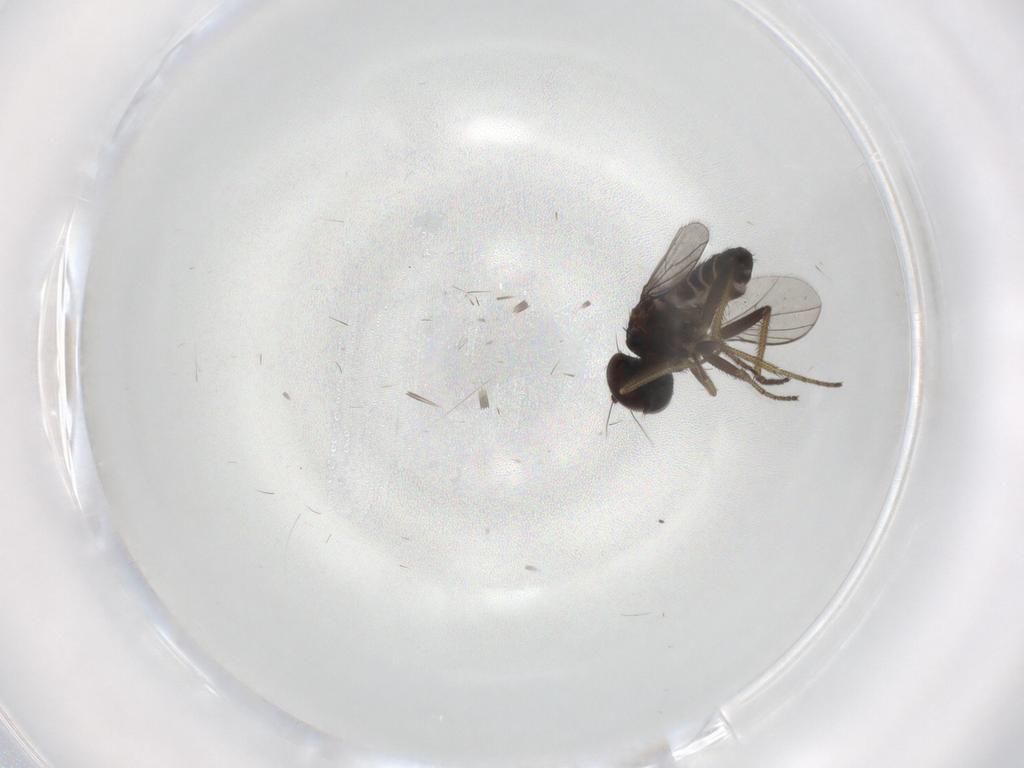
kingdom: Animalia
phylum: Arthropoda
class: Insecta
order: Diptera
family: Cecidomyiidae
